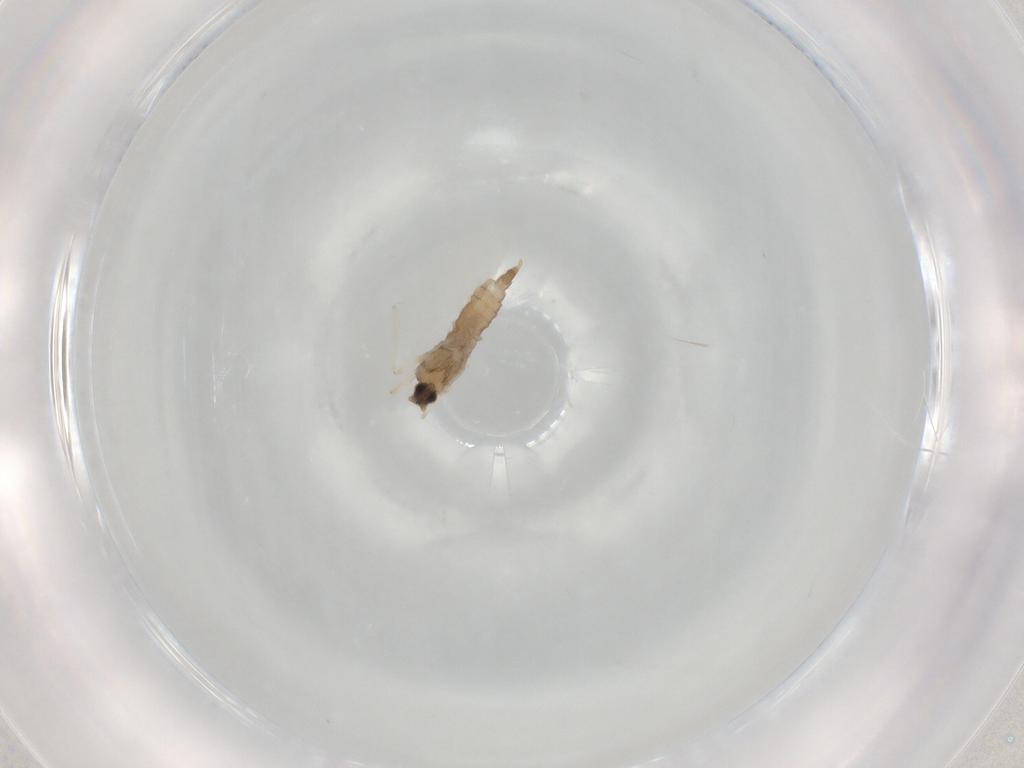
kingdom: Animalia
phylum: Arthropoda
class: Insecta
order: Diptera
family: Cecidomyiidae
